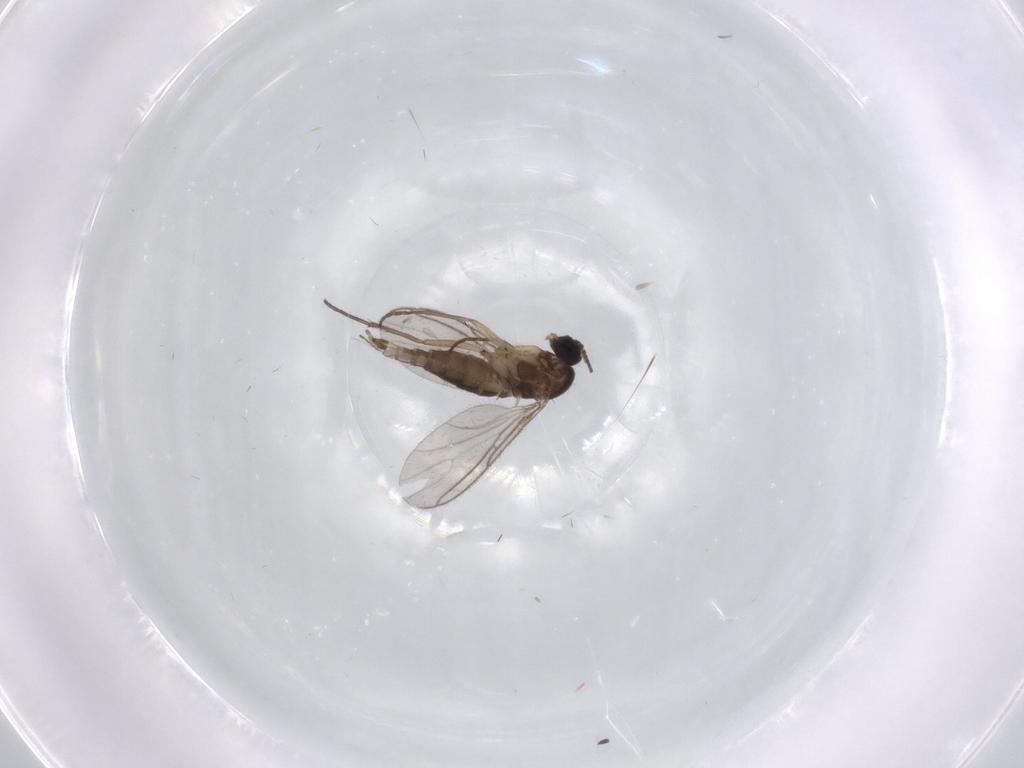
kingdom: Animalia
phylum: Arthropoda
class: Insecta
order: Diptera
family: Sciaridae
